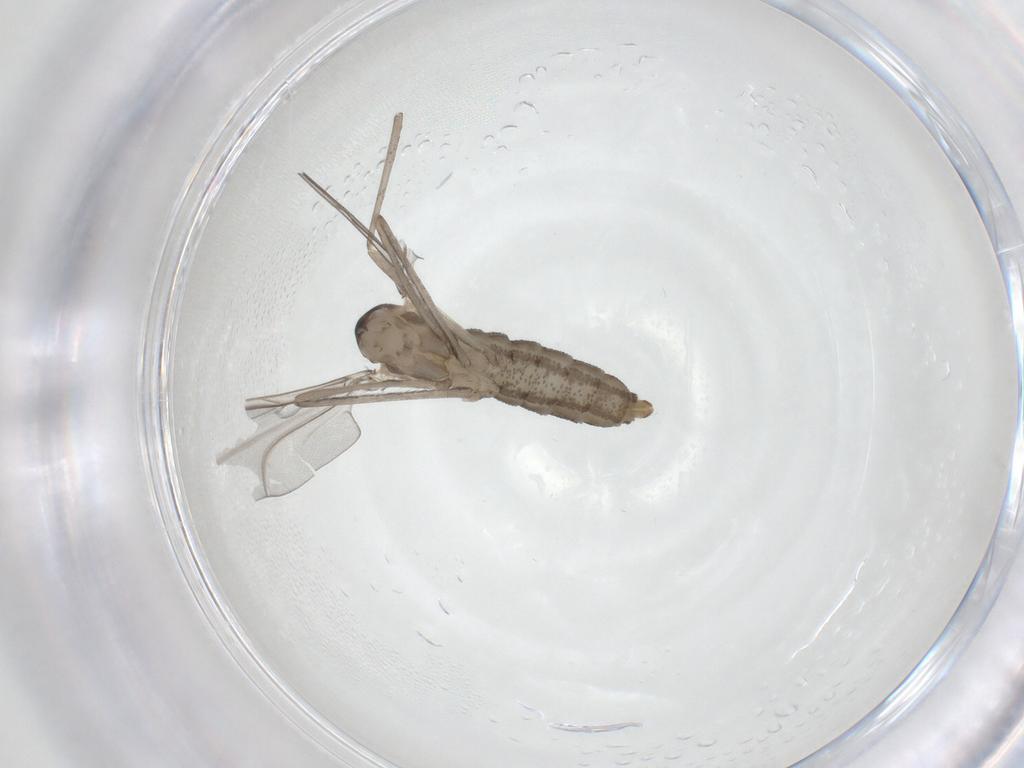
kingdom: Animalia
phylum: Arthropoda
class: Insecta
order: Diptera
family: Cecidomyiidae
